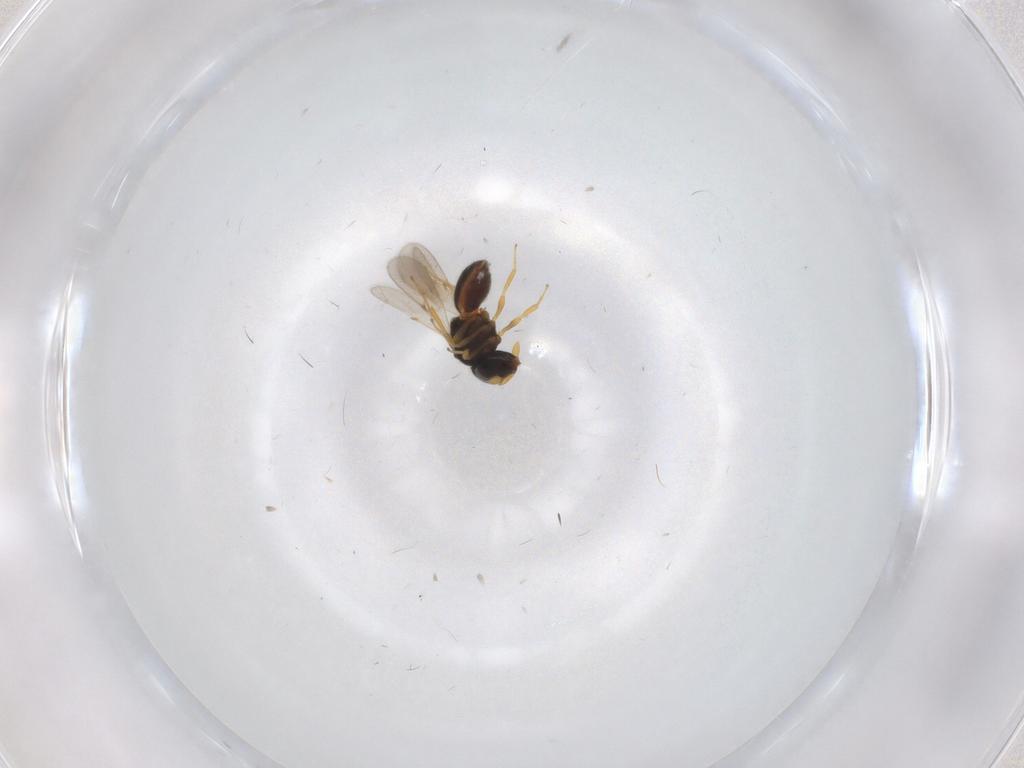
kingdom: Animalia
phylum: Arthropoda
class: Insecta
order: Hymenoptera
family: Scelionidae
